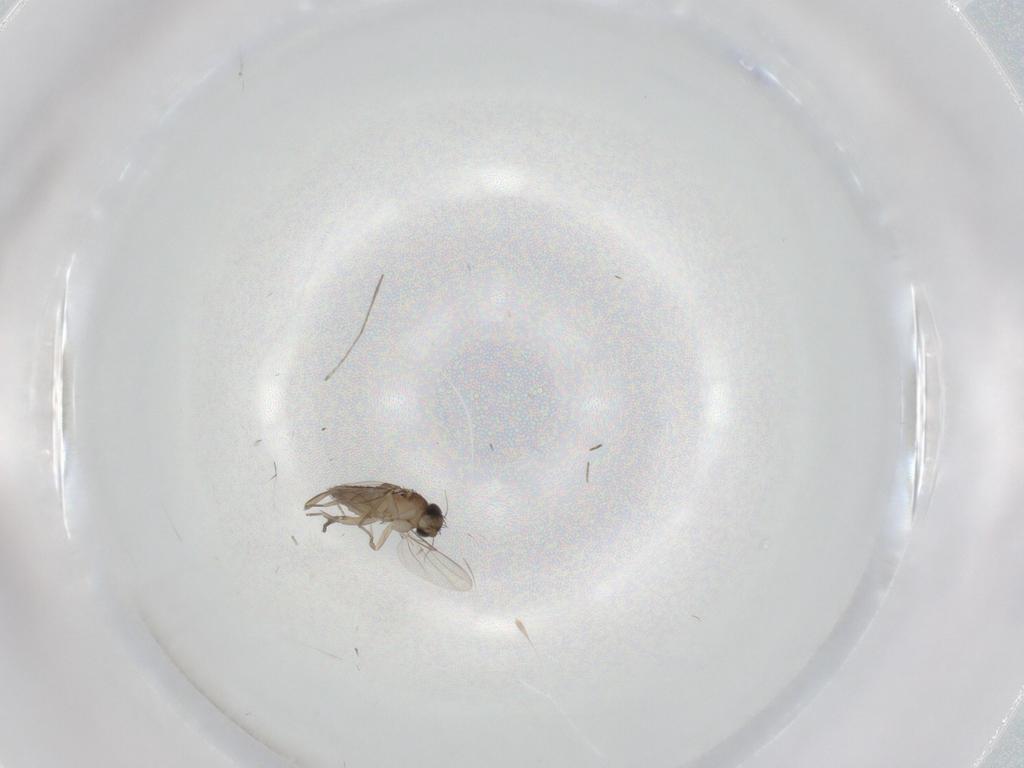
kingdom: Animalia
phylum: Arthropoda
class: Insecta
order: Diptera
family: Phoridae
